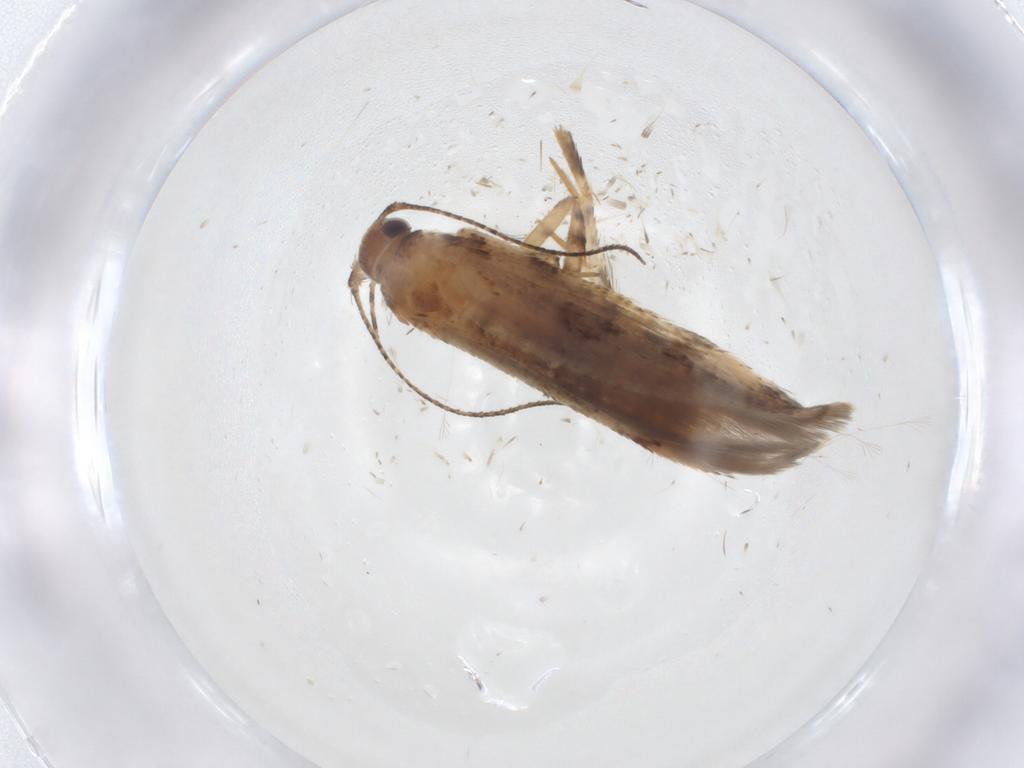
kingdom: Animalia
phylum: Arthropoda
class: Insecta
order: Lepidoptera
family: Gelechiidae
